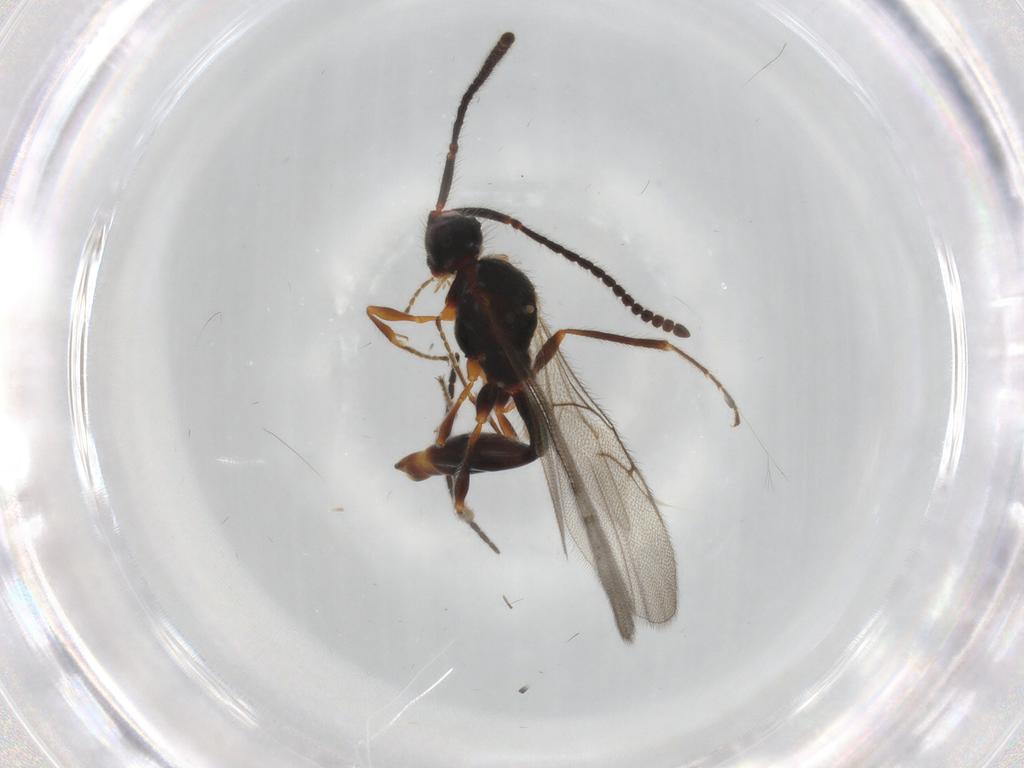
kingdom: Animalia
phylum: Arthropoda
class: Insecta
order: Hymenoptera
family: Diapriidae
